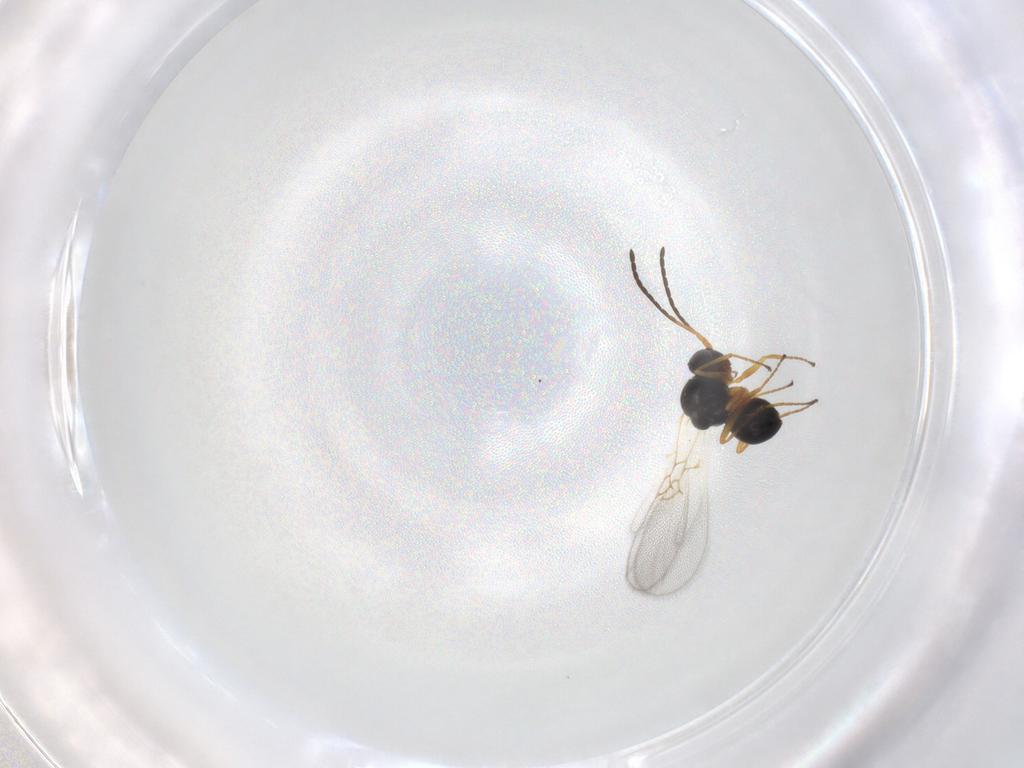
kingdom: Animalia
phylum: Arthropoda
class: Insecta
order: Hymenoptera
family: Figitidae
